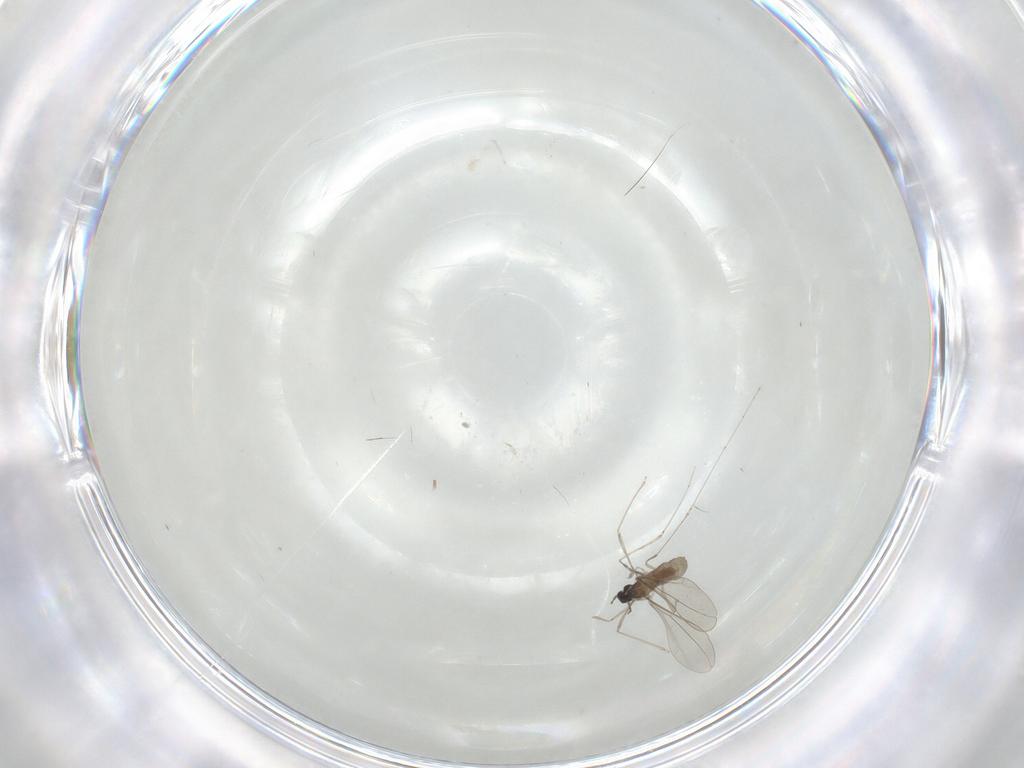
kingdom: Animalia
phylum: Arthropoda
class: Insecta
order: Diptera
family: Cecidomyiidae
